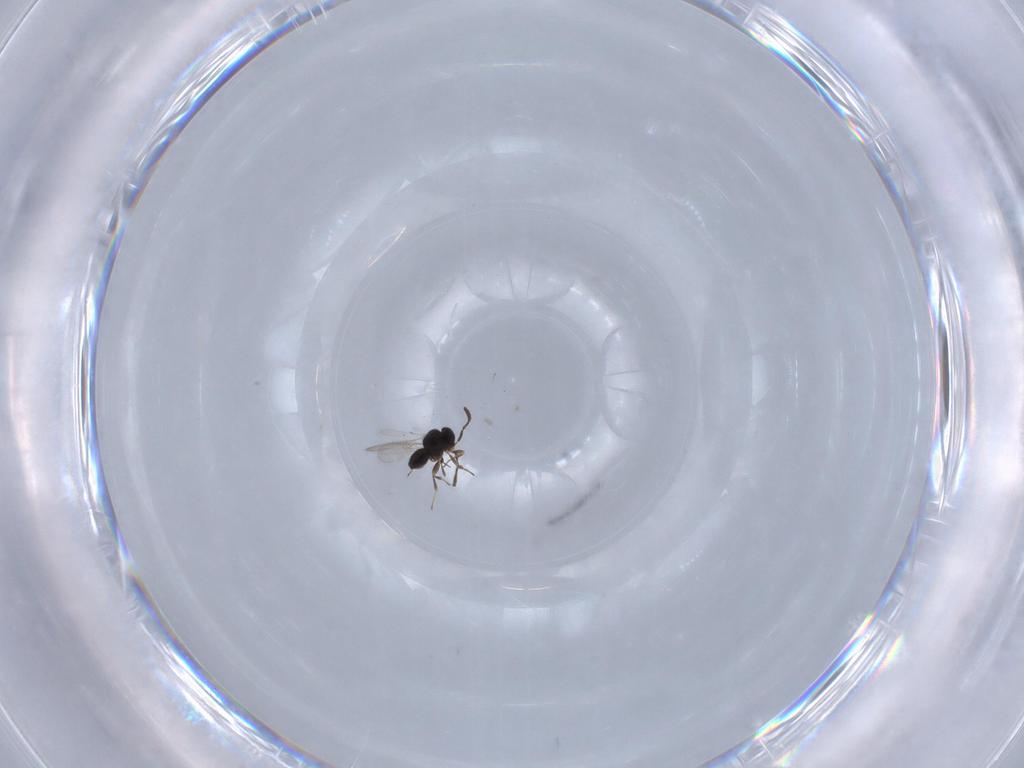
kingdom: Animalia
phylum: Arthropoda
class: Insecta
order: Hymenoptera
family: Scelionidae
